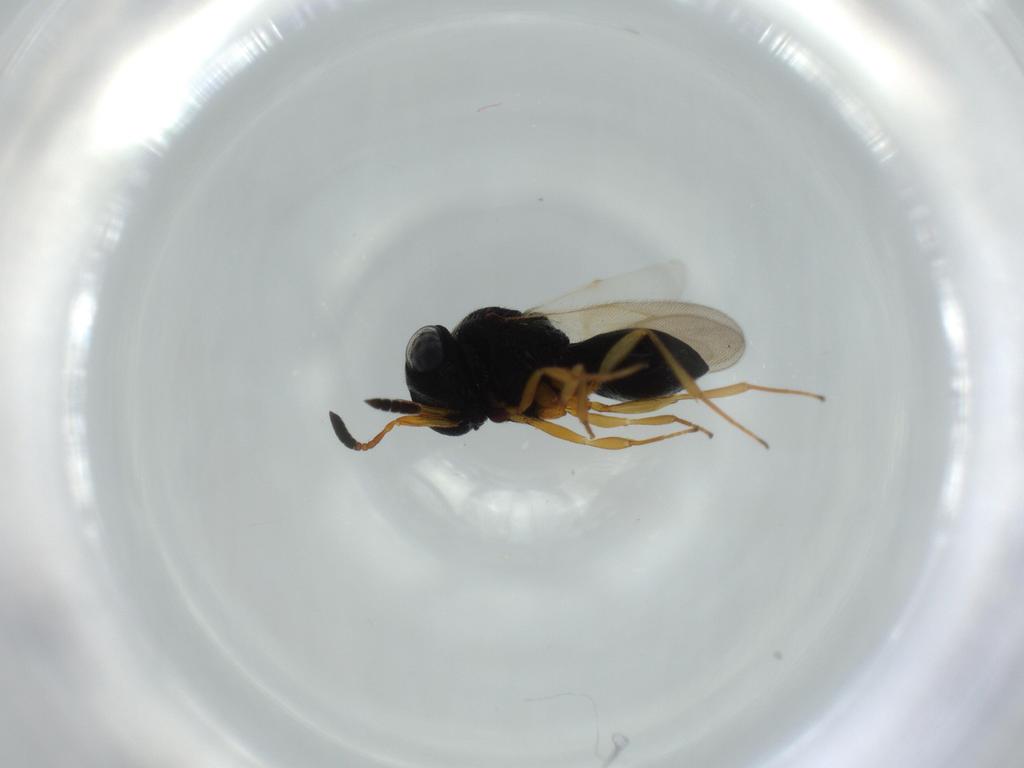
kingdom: Animalia
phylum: Arthropoda
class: Insecta
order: Hymenoptera
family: Scelionidae
